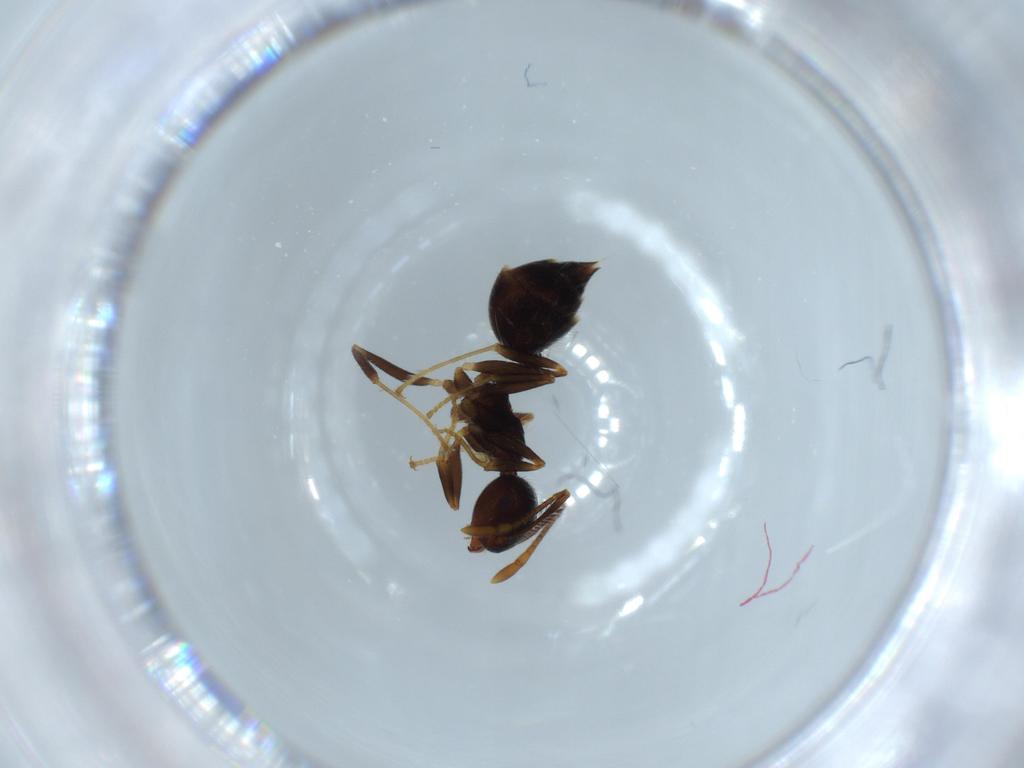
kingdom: Animalia
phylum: Arthropoda
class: Insecta
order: Hymenoptera
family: Formicidae
